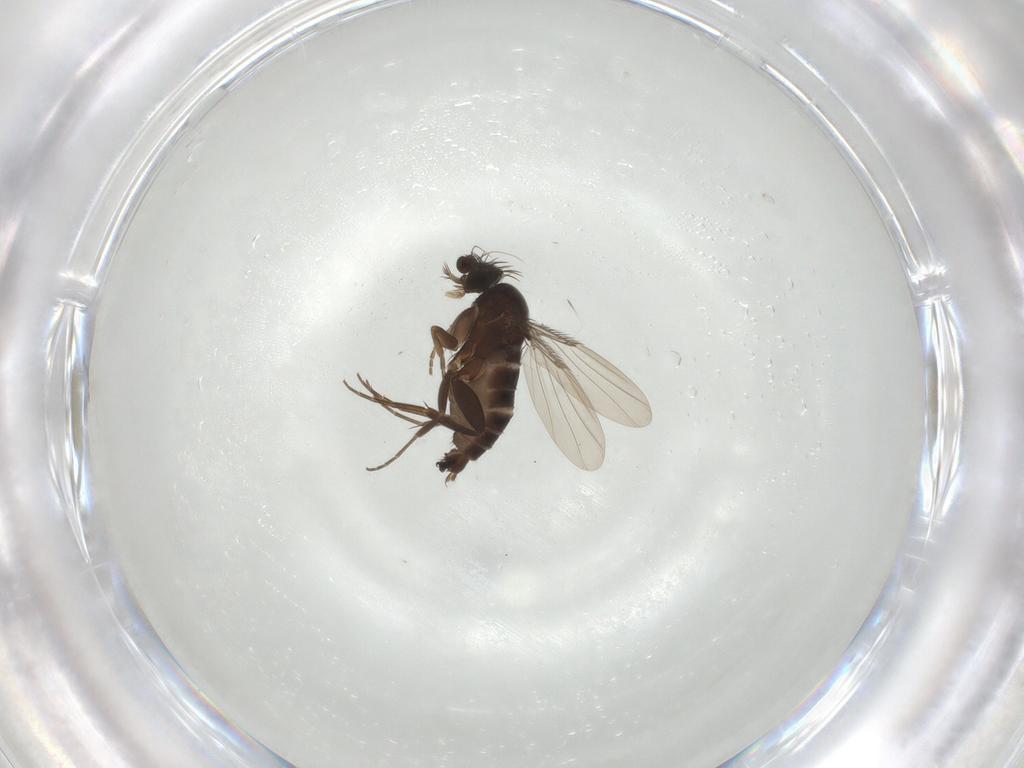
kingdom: Animalia
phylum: Arthropoda
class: Insecta
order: Diptera
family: Phoridae
